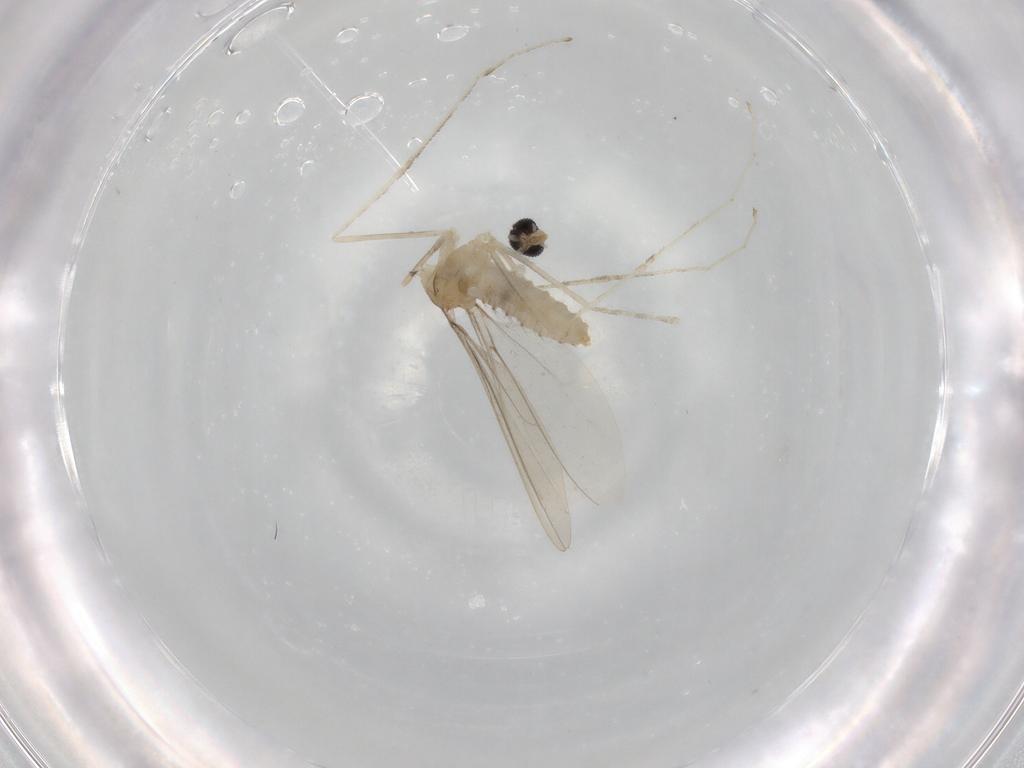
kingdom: Animalia
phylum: Arthropoda
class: Insecta
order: Diptera
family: Cecidomyiidae
